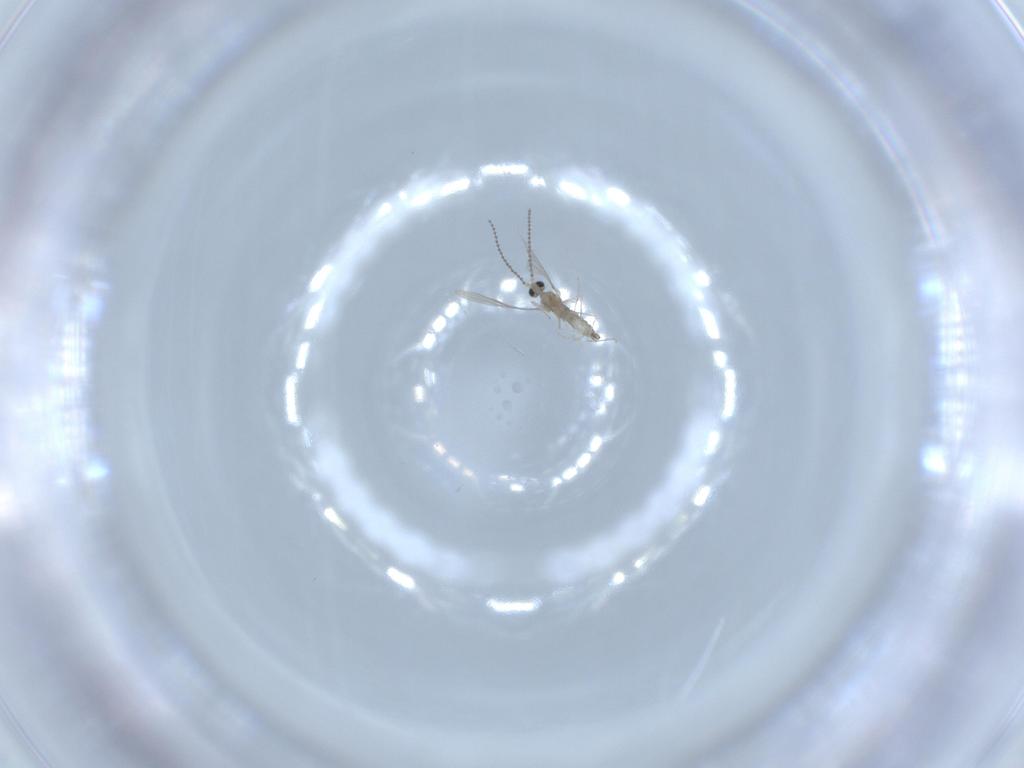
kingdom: Animalia
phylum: Arthropoda
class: Insecta
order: Diptera
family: Cecidomyiidae
